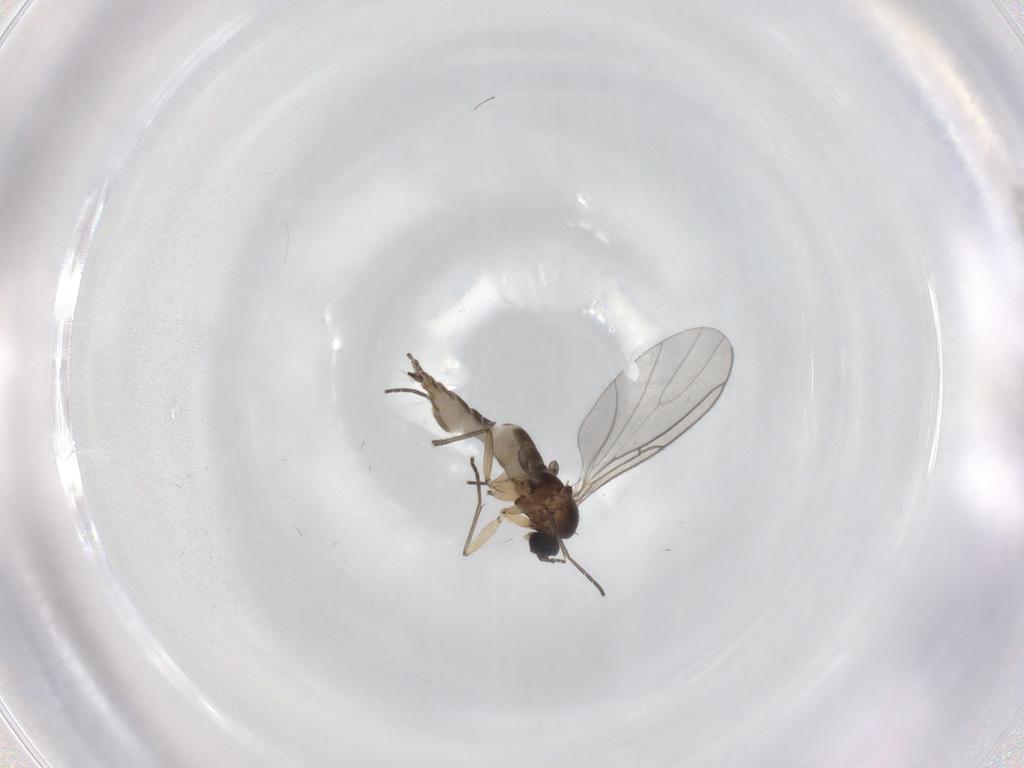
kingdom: Animalia
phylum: Arthropoda
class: Insecta
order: Diptera
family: Sciaridae
